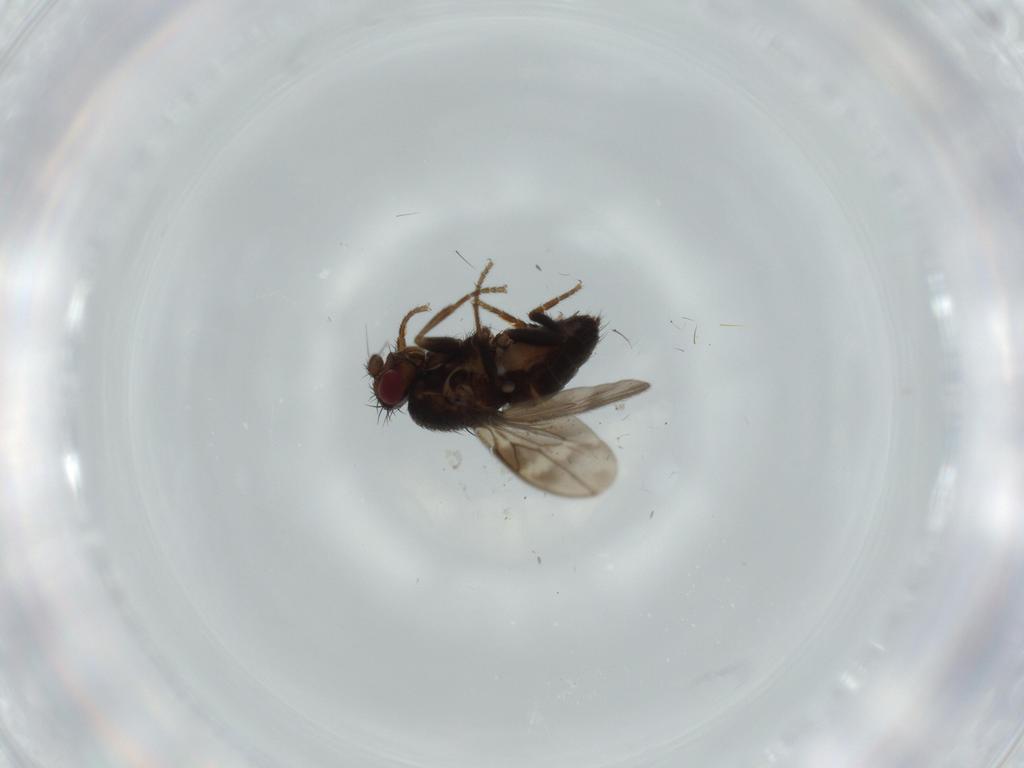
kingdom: Animalia
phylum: Arthropoda
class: Insecta
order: Diptera
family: Sphaeroceridae
